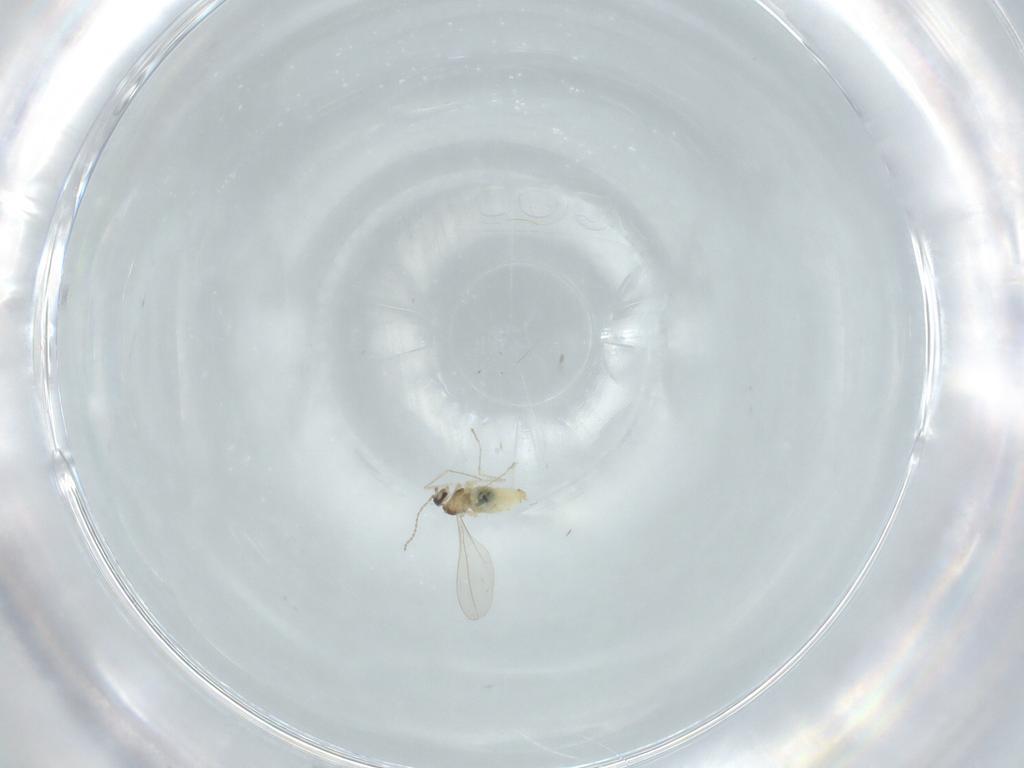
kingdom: Animalia
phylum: Arthropoda
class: Insecta
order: Diptera
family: Cecidomyiidae
